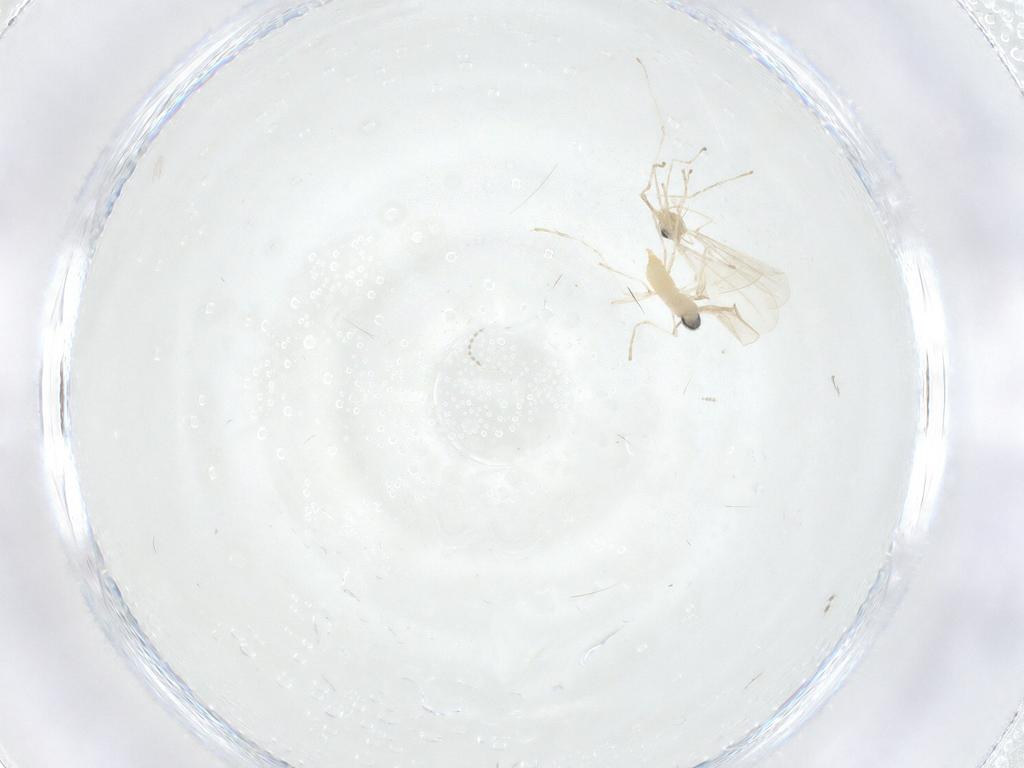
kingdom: Animalia
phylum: Arthropoda
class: Insecta
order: Diptera
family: Cecidomyiidae
